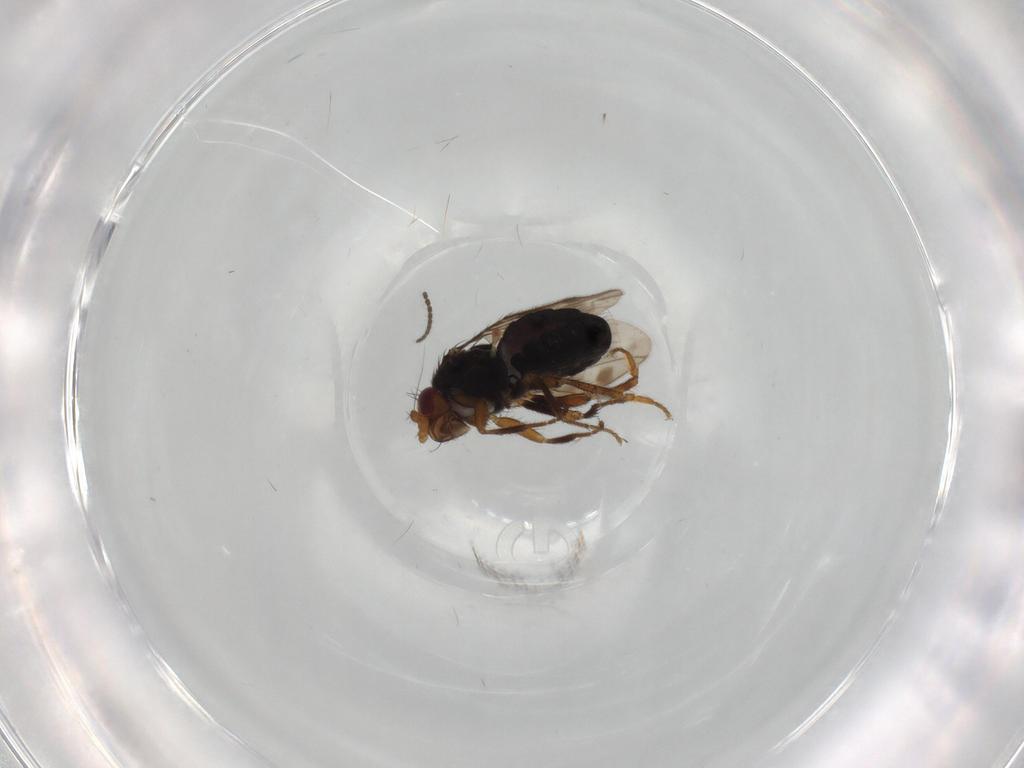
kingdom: Animalia
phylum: Arthropoda
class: Insecta
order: Diptera
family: Sphaeroceridae
